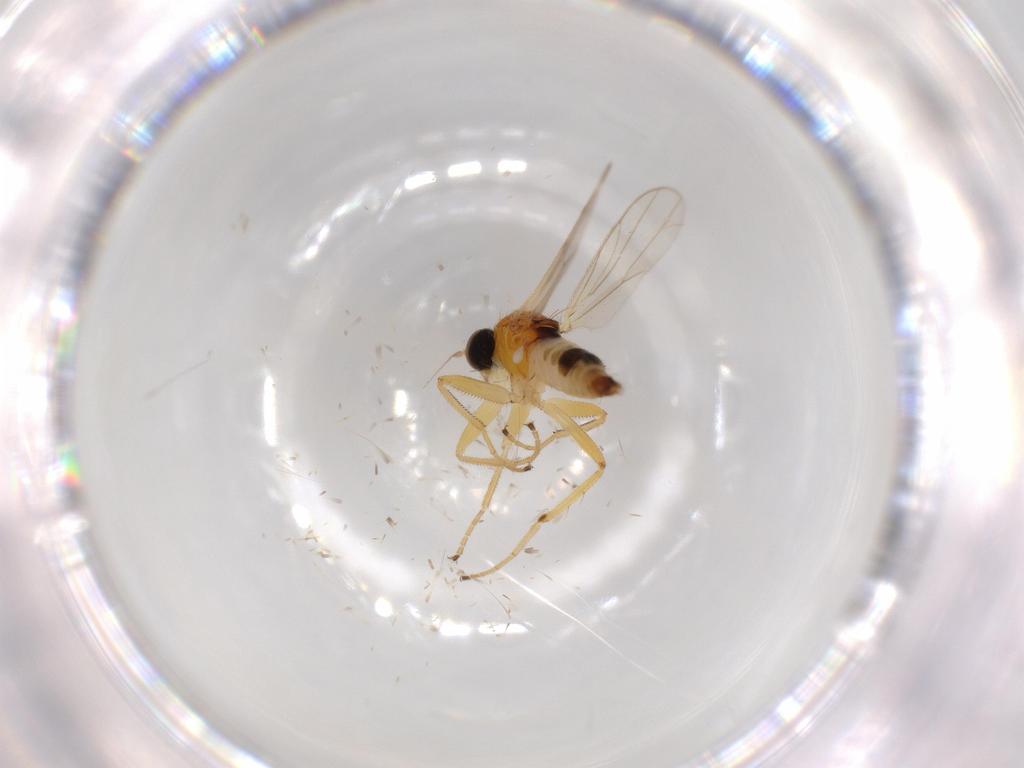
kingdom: Animalia
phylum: Arthropoda
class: Insecta
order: Diptera
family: Hybotidae
